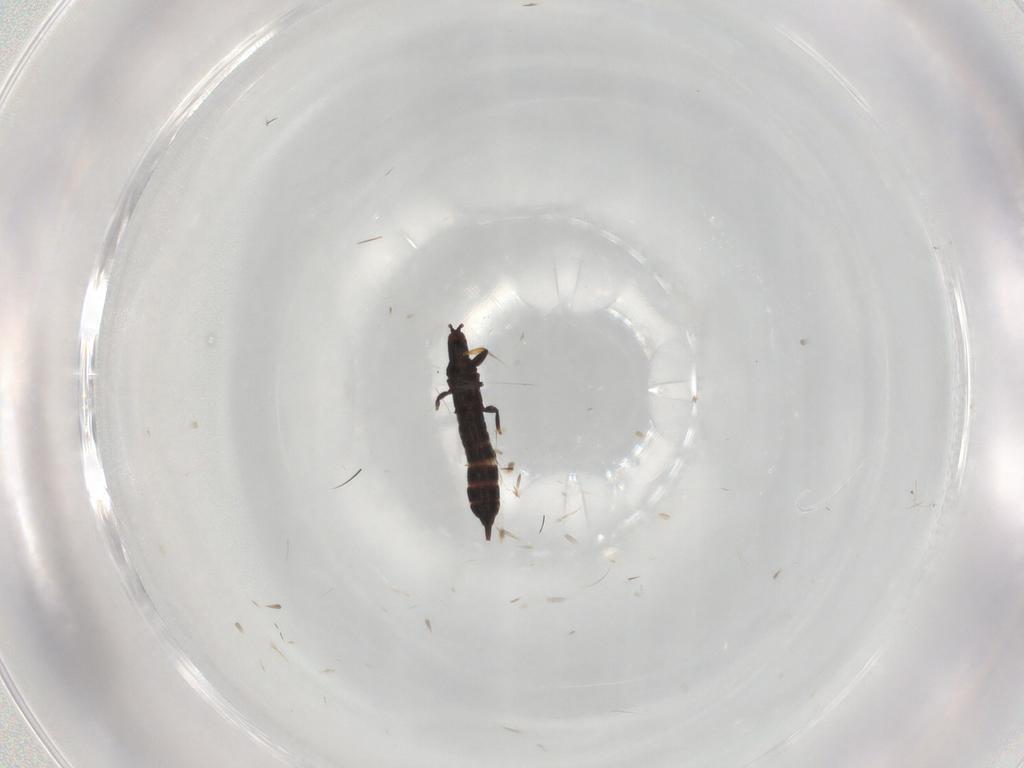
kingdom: Animalia
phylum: Arthropoda
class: Insecta
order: Thysanoptera
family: Phlaeothripidae
